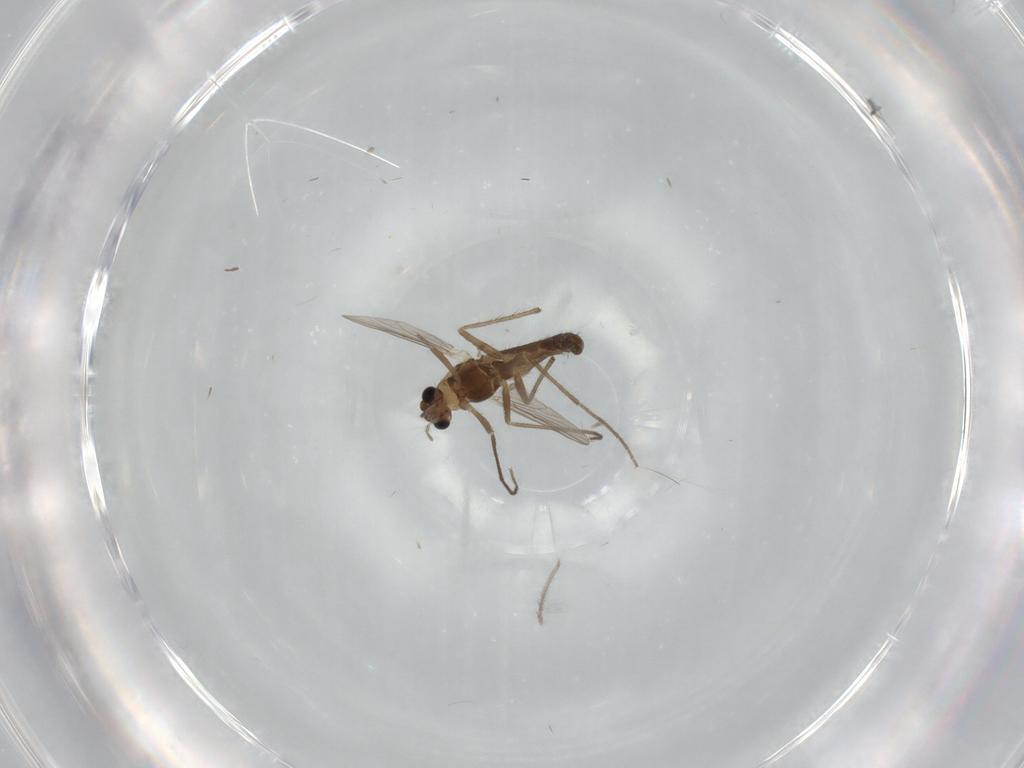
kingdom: Animalia
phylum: Arthropoda
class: Insecta
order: Diptera
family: Chironomidae
